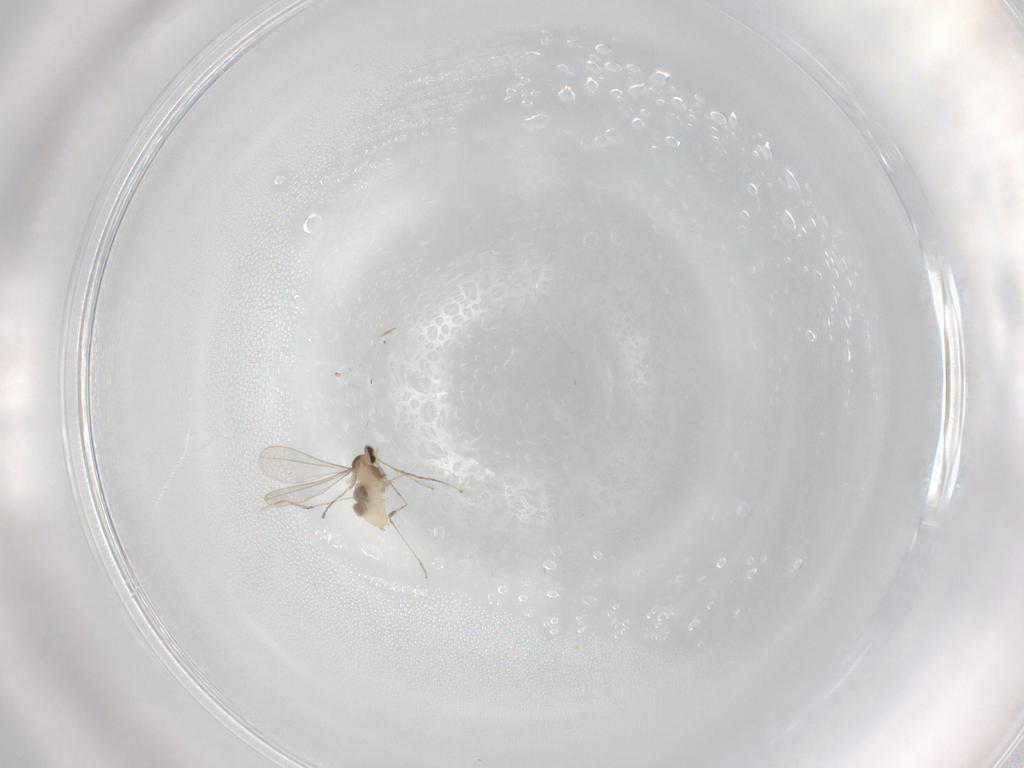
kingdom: Animalia
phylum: Arthropoda
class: Insecta
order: Diptera
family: Cecidomyiidae
